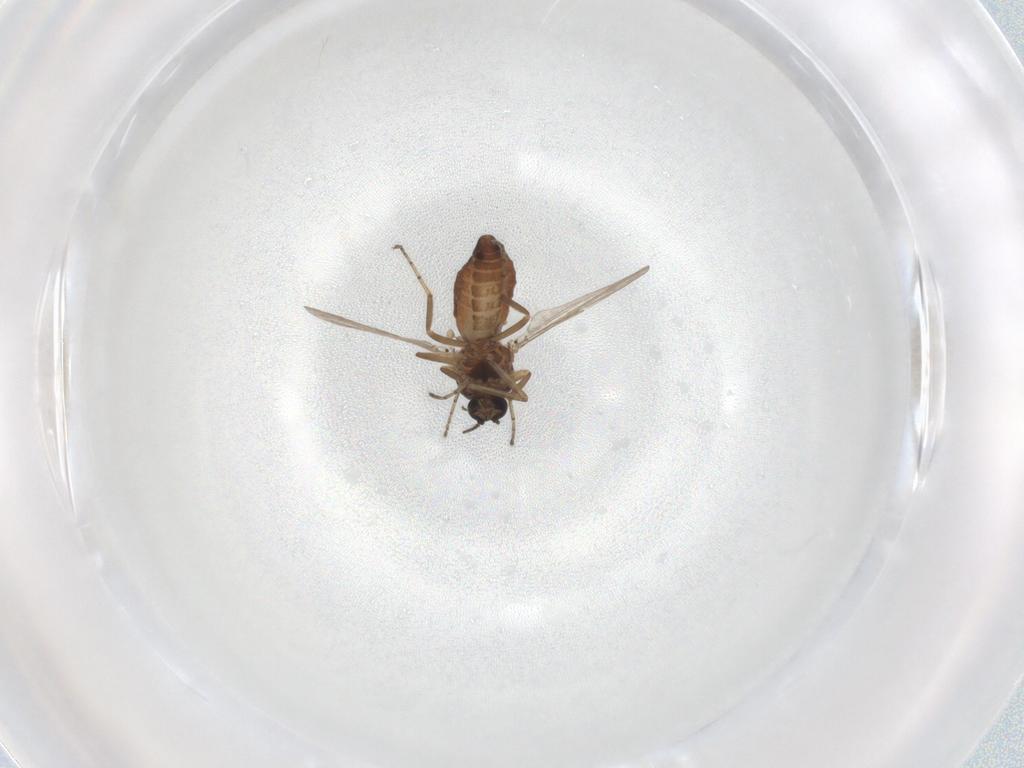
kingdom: Animalia
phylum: Arthropoda
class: Insecta
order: Diptera
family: Ceratopogonidae
